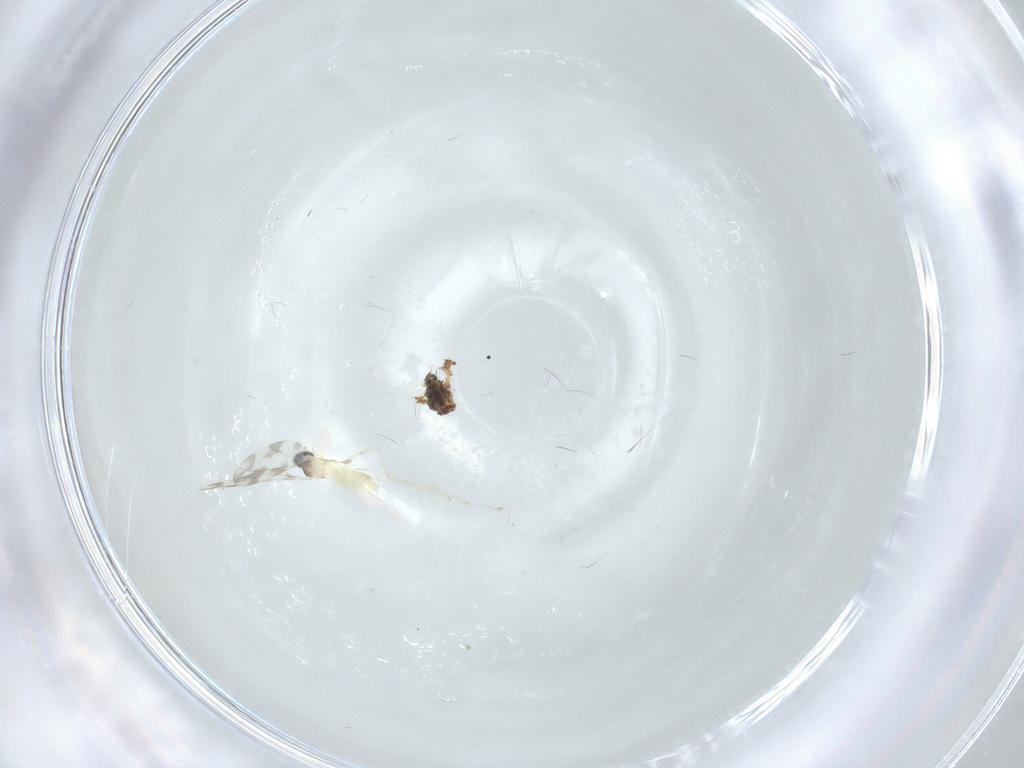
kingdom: Animalia
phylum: Arthropoda
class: Insecta
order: Diptera
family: Cecidomyiidae
